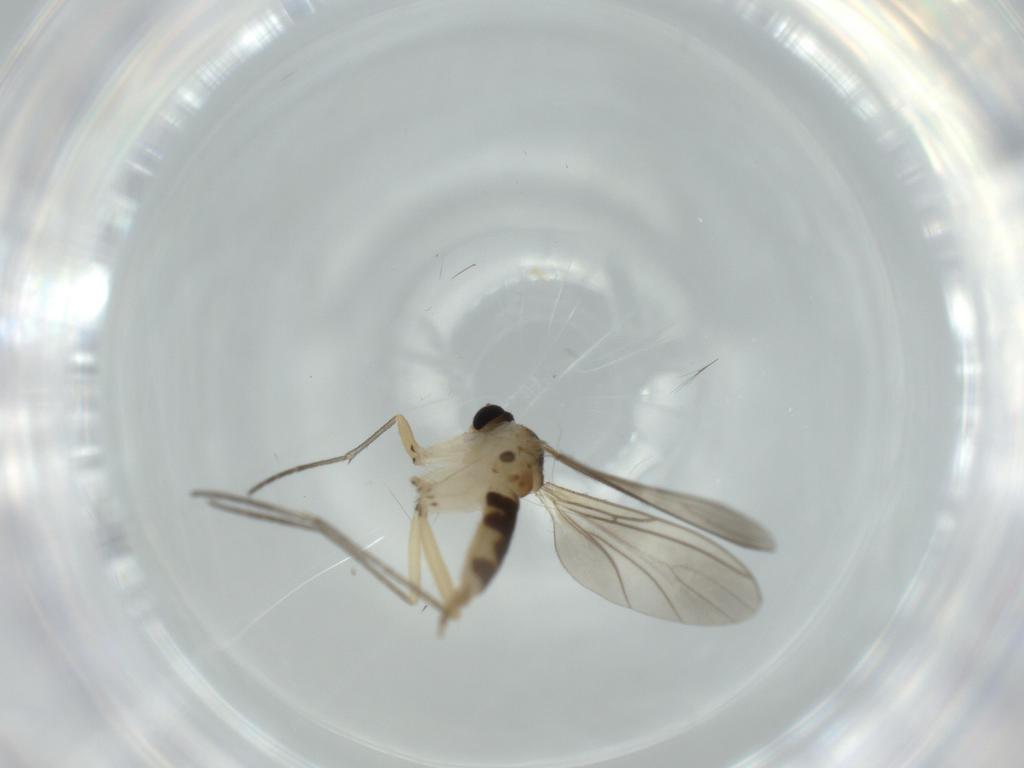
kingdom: Animalia
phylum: Arthropoda
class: Insecta
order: Diptera
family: Sciaridae
